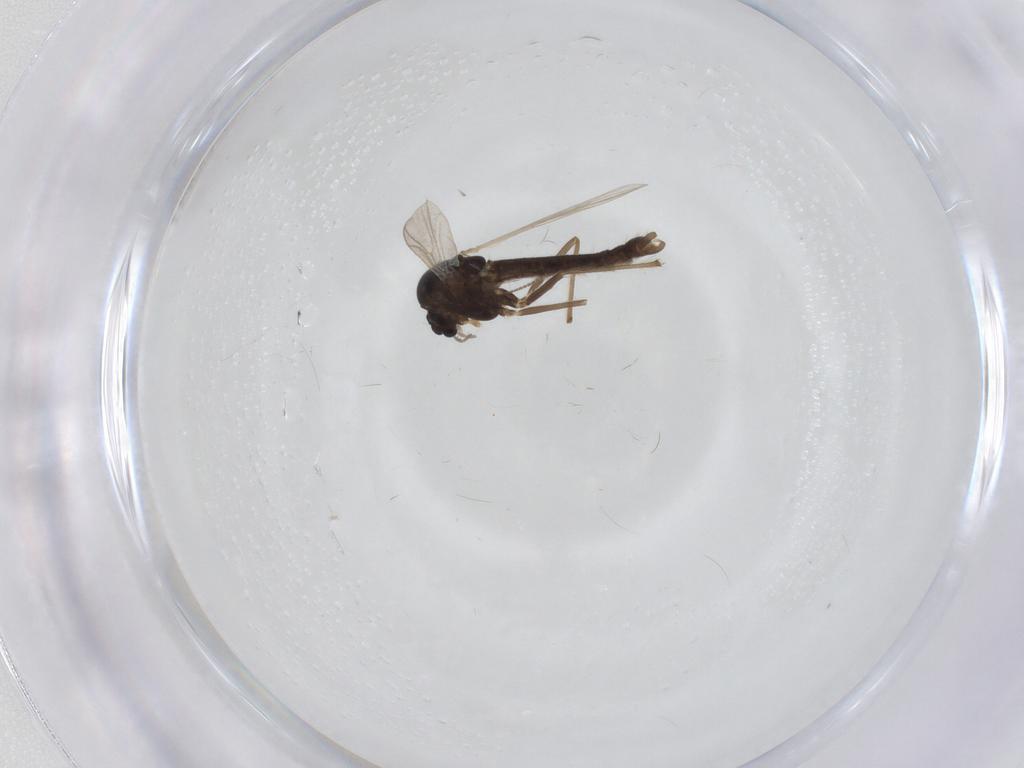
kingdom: Animalia
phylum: Arthropoda
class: Insecta
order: Diptera
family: Chironomidae
